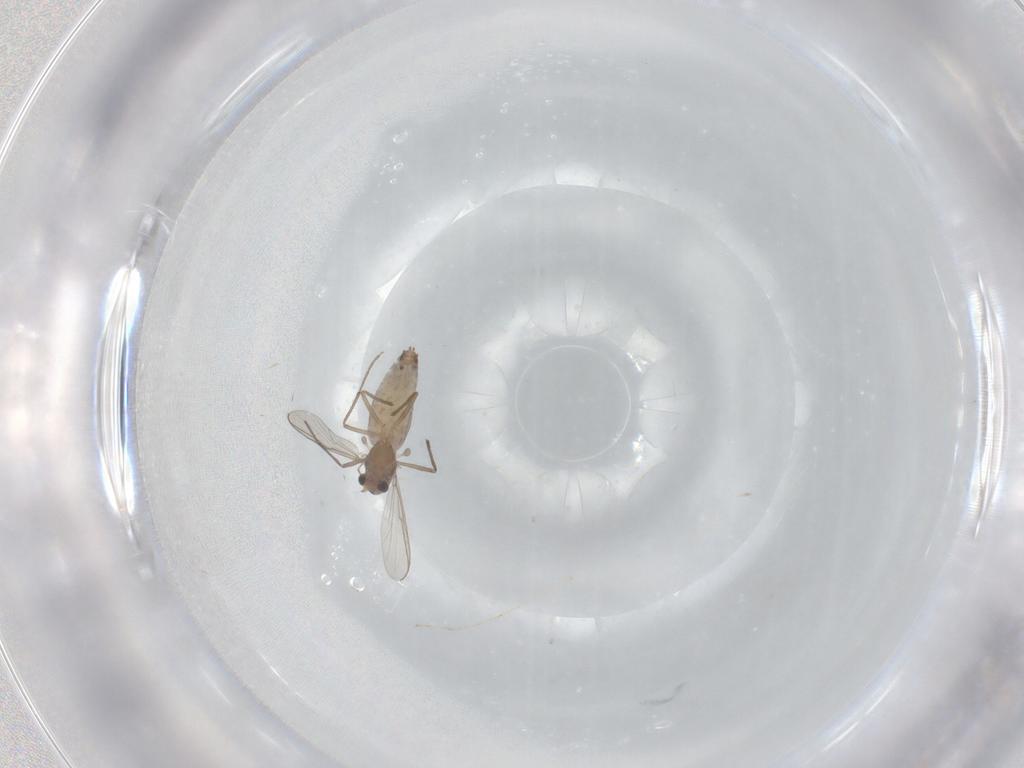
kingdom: Animalia
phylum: Arthropoda
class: Insecta
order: Diptera
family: Chironomidae
